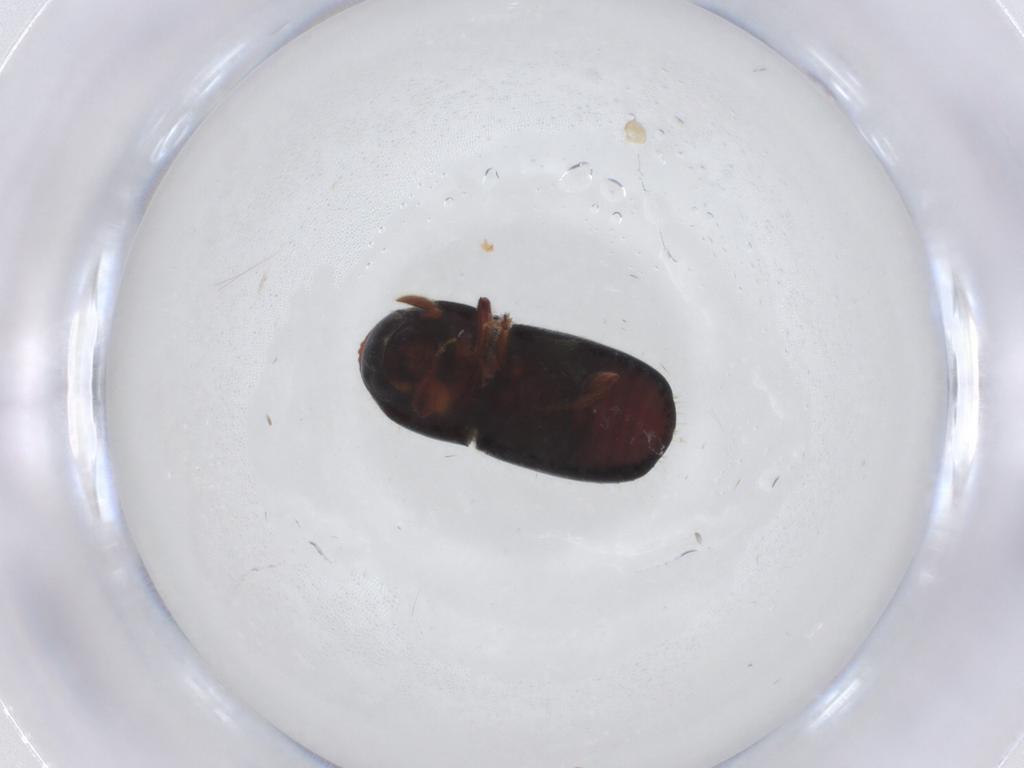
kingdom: Animalia
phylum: Arthropoda
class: Insecta
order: Coleoptera
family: Curculionidae
